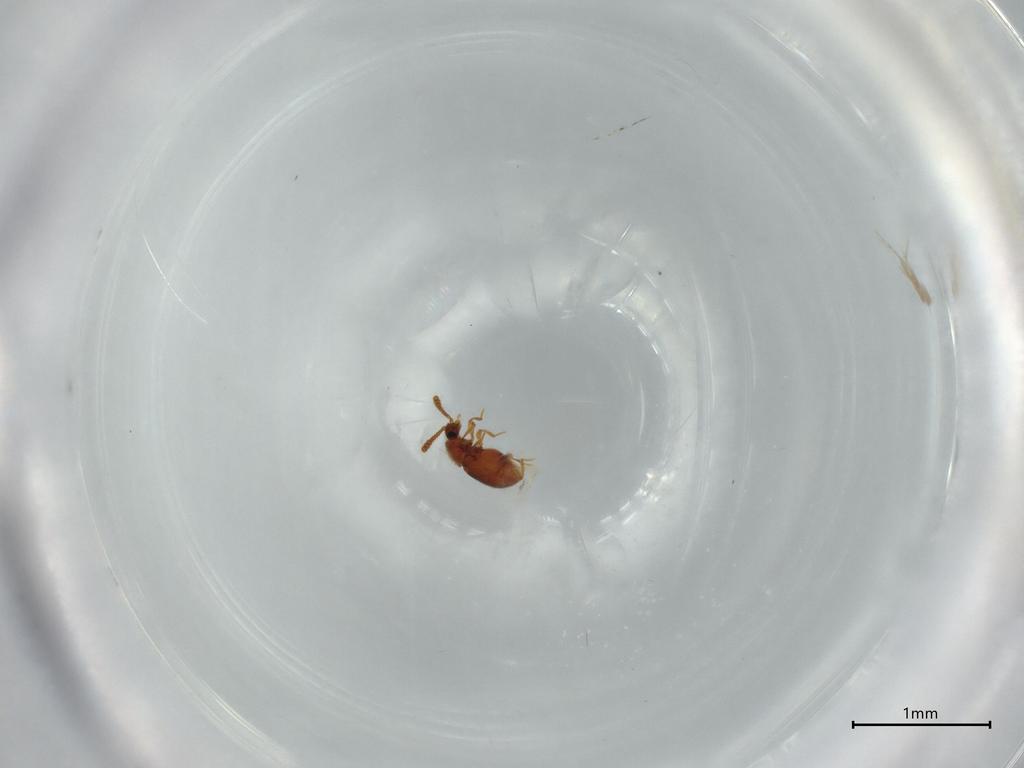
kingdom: Animalia
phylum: Arthropoda
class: Insecta
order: Coleoptera
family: Staphylinidae
